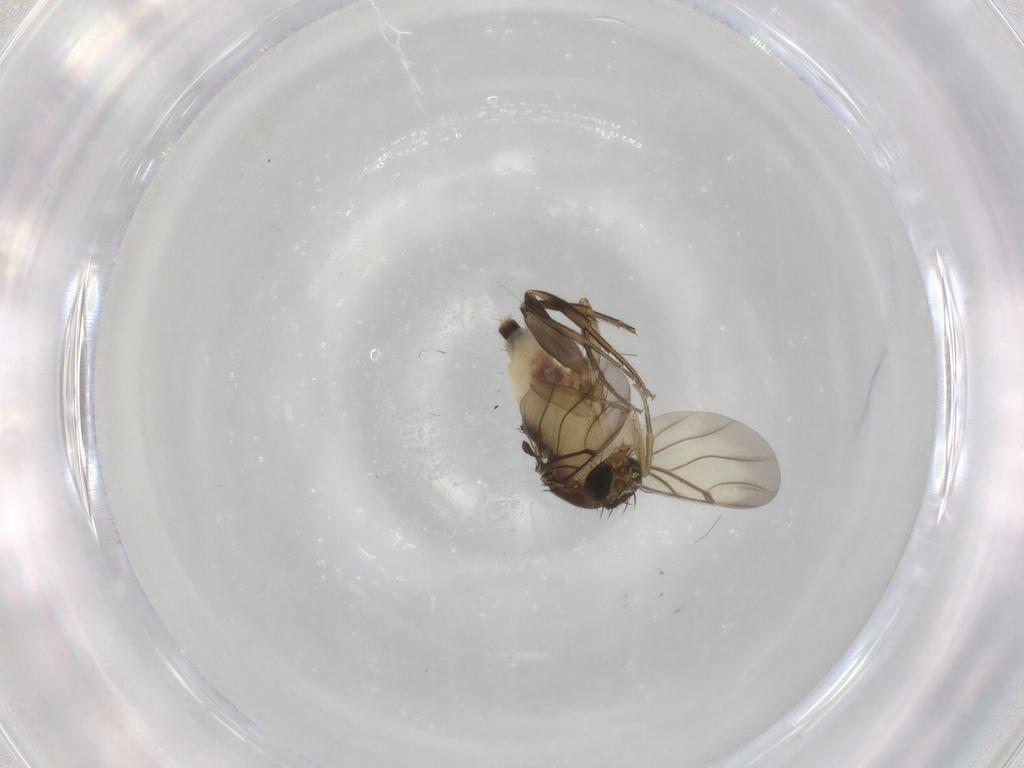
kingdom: Animalia
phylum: Arthropoda
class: Insecta
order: Diptera
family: Phoridae
